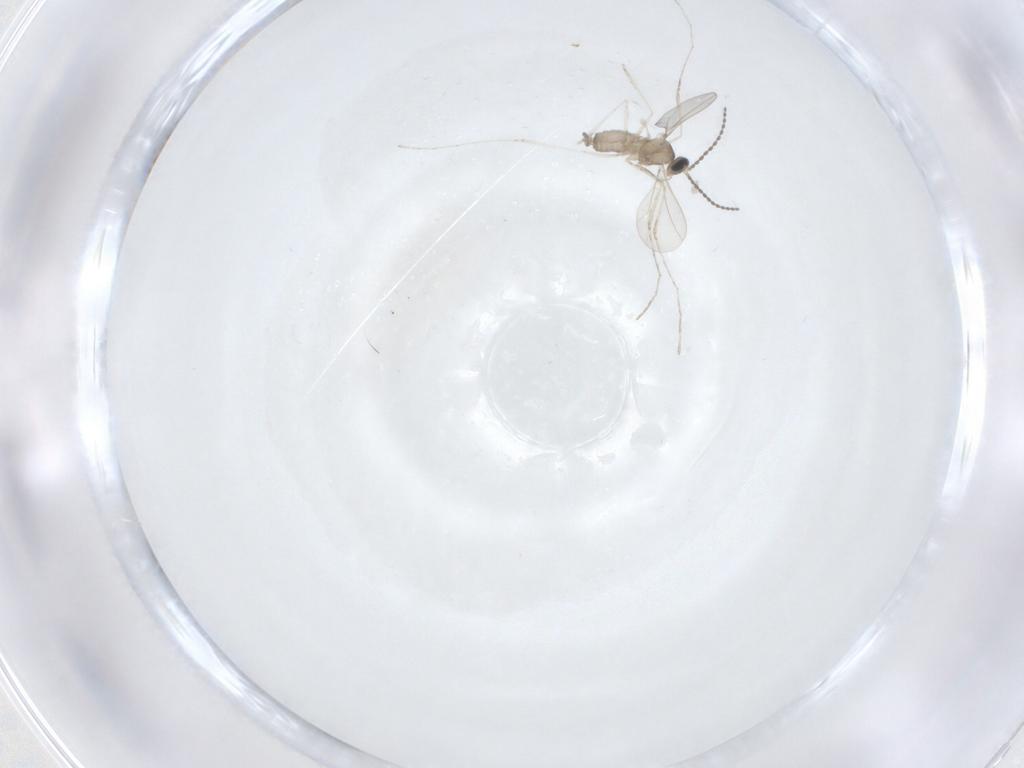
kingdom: Animalia
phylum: Arthropoda
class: Insecta
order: Diptera
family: Cecidomyiidae
